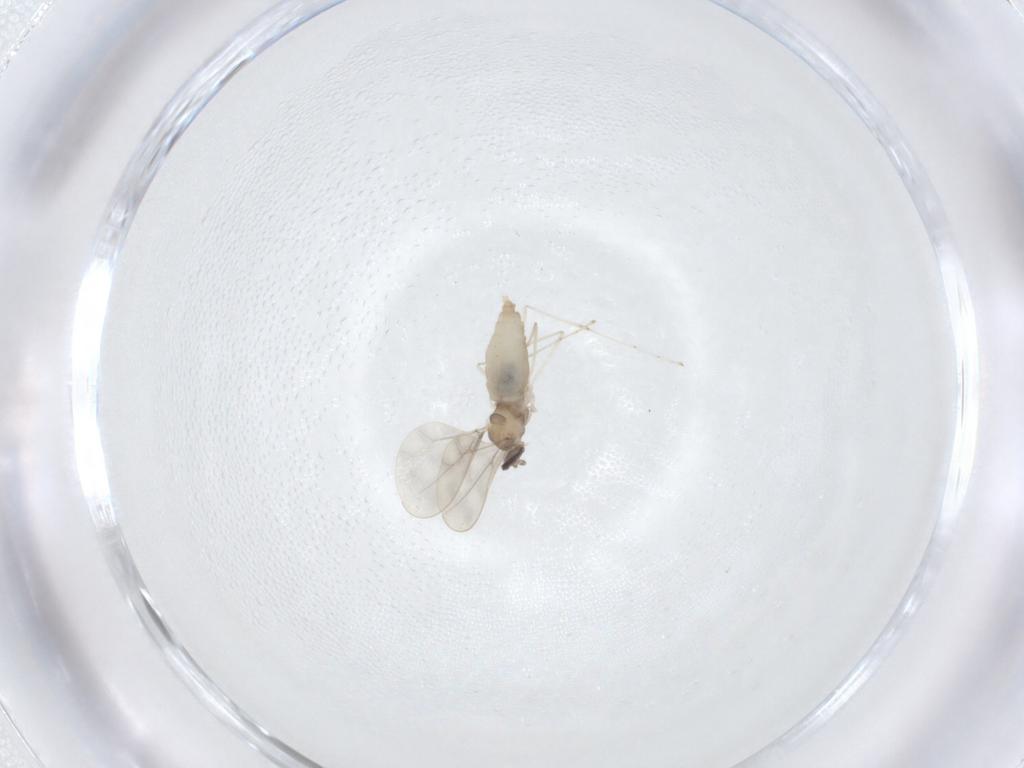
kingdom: Animalia
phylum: Arthropoda
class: Insecta
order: Diptera
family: Cecidomyiidae
